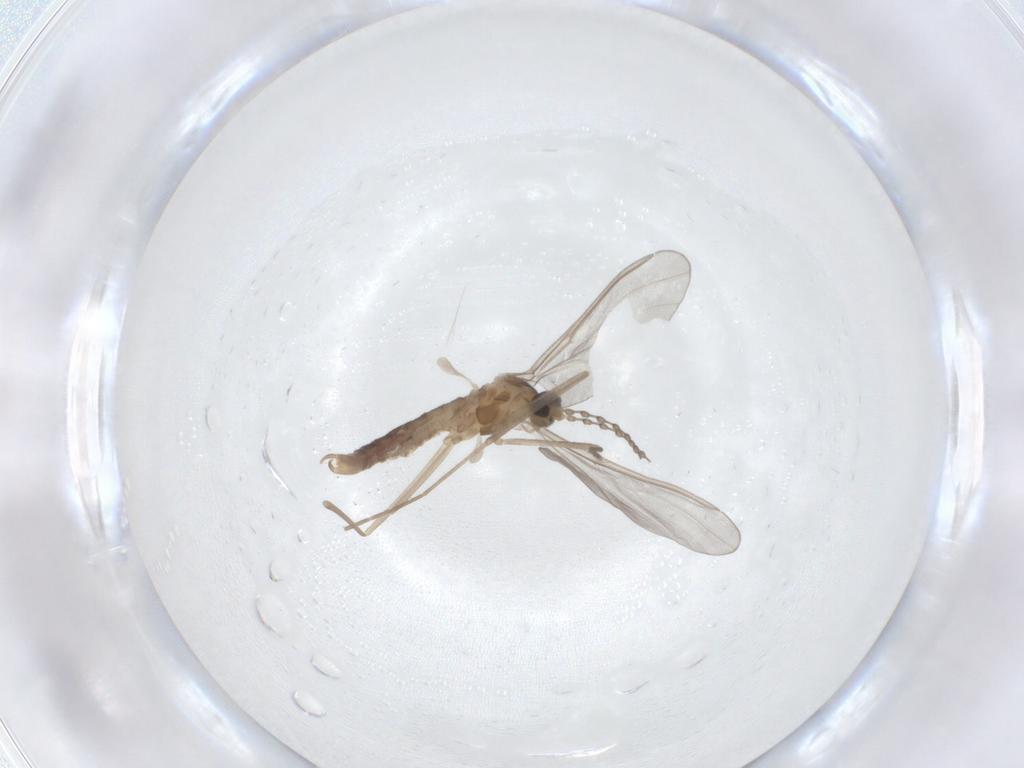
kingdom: Animalia
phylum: Arthropoda
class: Insecta
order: Diptera
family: Cecidomyiidae
